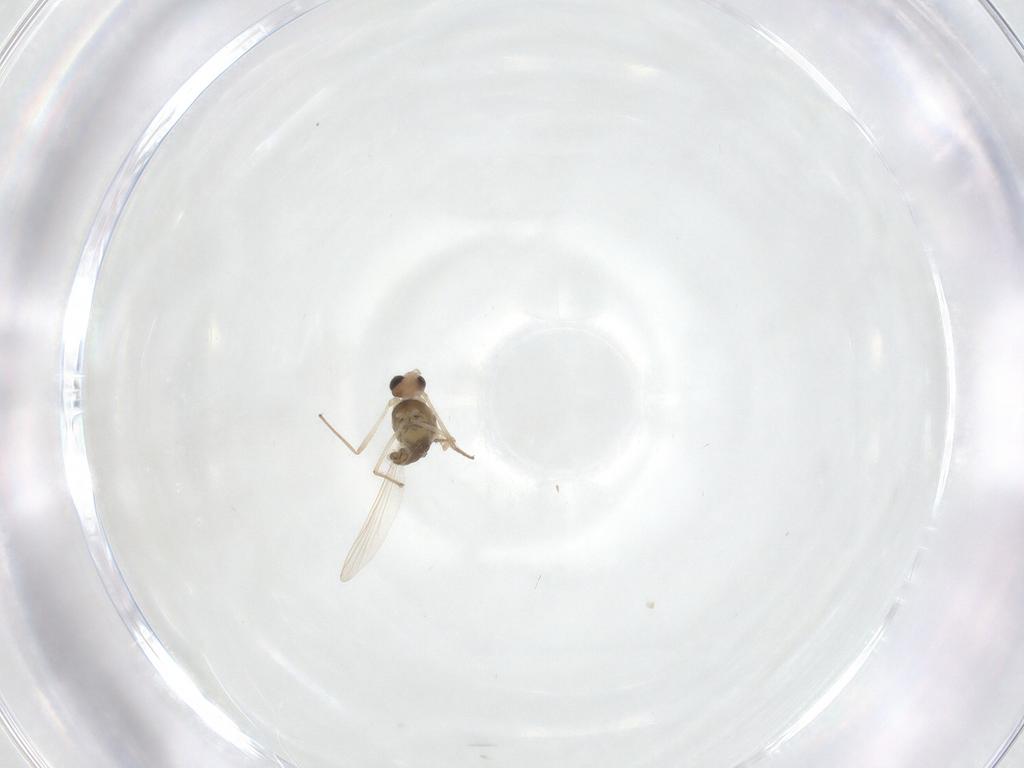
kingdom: Animalia
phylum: Arthropoda
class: Insecta
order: Diptera
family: Chironomidae
